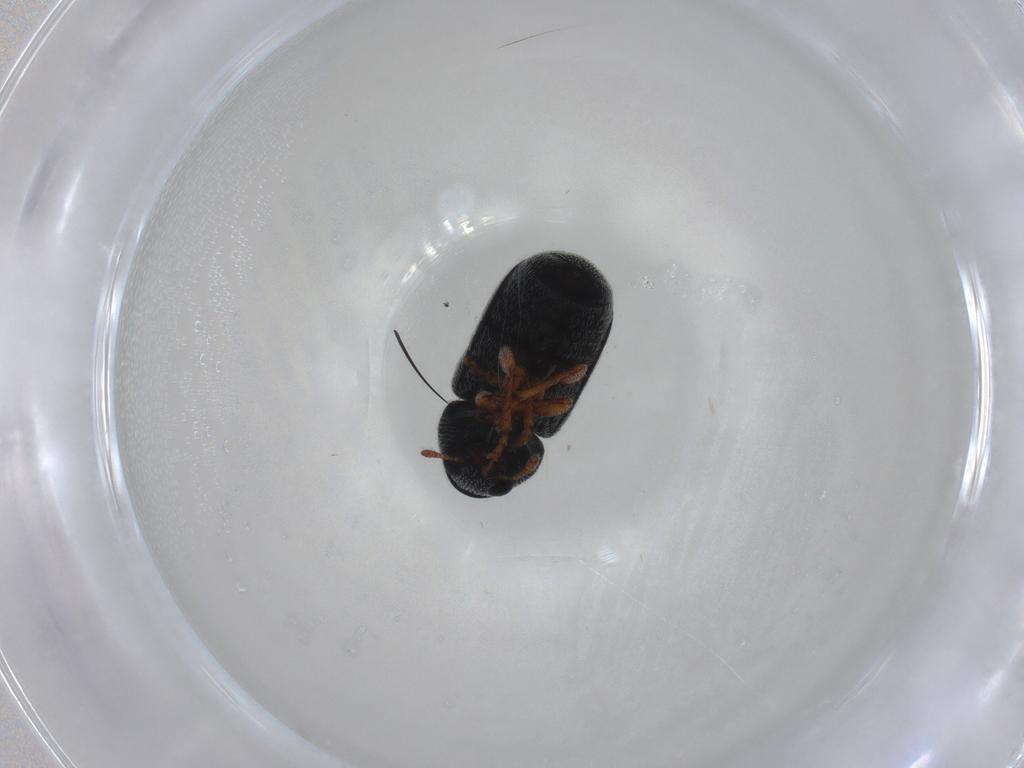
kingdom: Animalia
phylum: Arthropoda
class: Insecta
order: Coleoptera
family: Anthribidae
